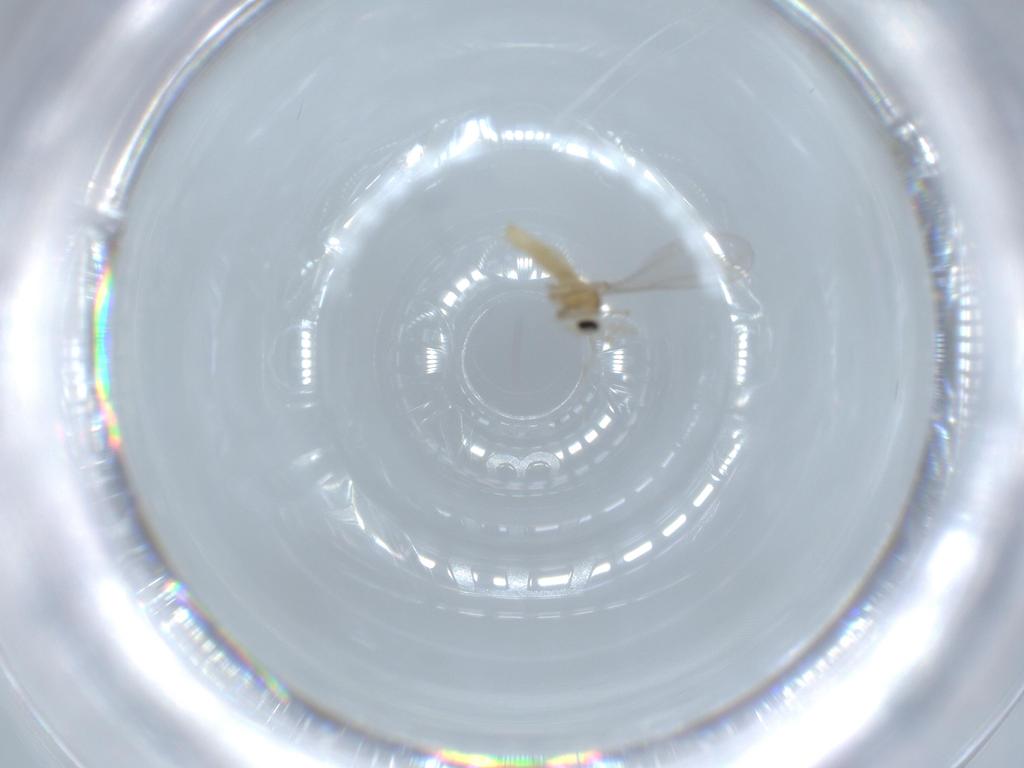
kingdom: Animalia
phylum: Arthropoda
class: Insecta
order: Diptera
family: Cecidomyiidae
